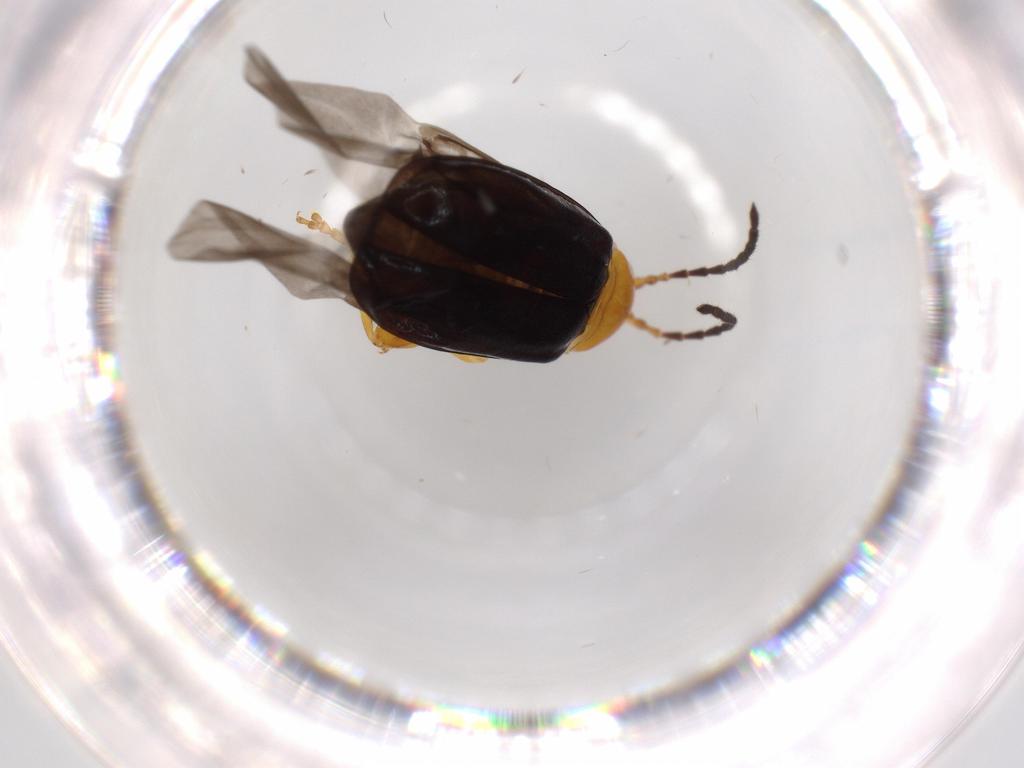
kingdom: Animalia
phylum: Arthropoda
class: Insecta
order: Coleoptera
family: Chrysomelidae
